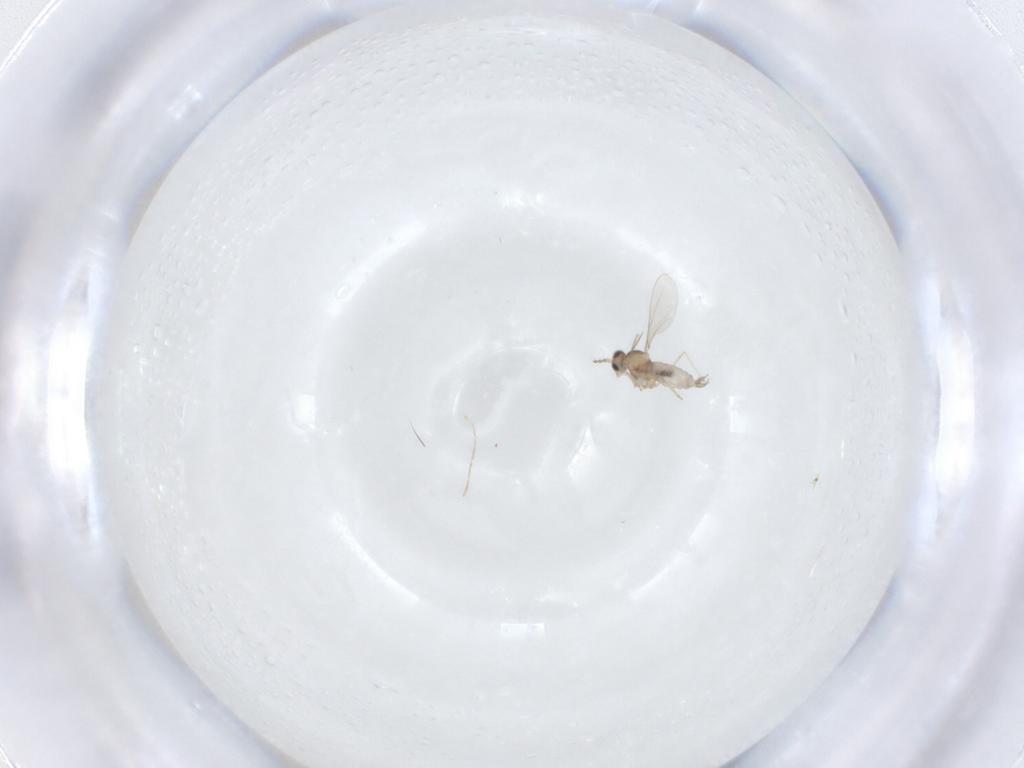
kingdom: Animalia
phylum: Arthropoda
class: Insecta
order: Diptera
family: Cecidomyiidae
